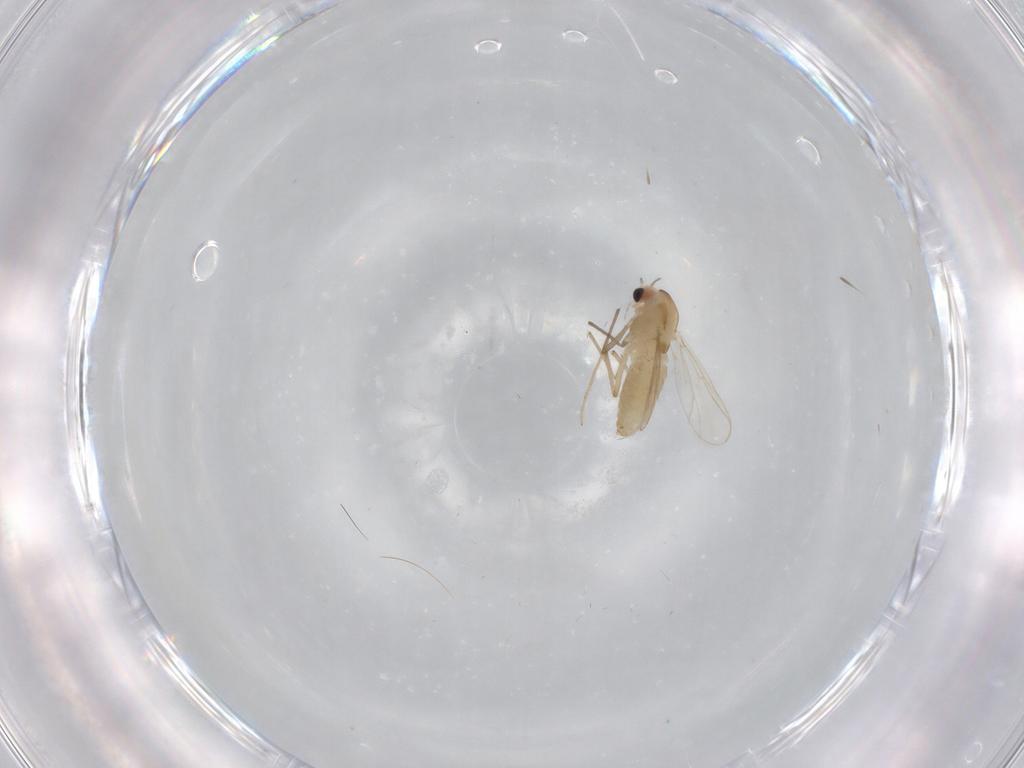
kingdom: Animalia
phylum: Arthropoda
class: Insecta
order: Diptera
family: Chironomidae
